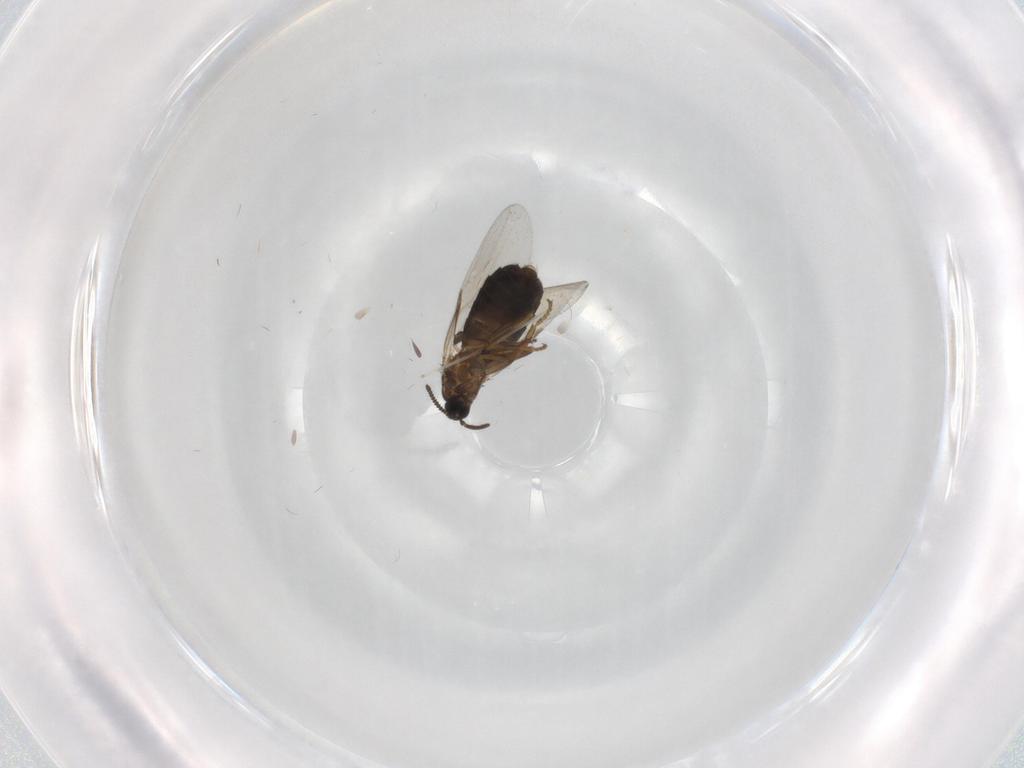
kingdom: Animalia
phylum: Arthropoda
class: Insecta
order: Diptera
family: Scatopsidae
